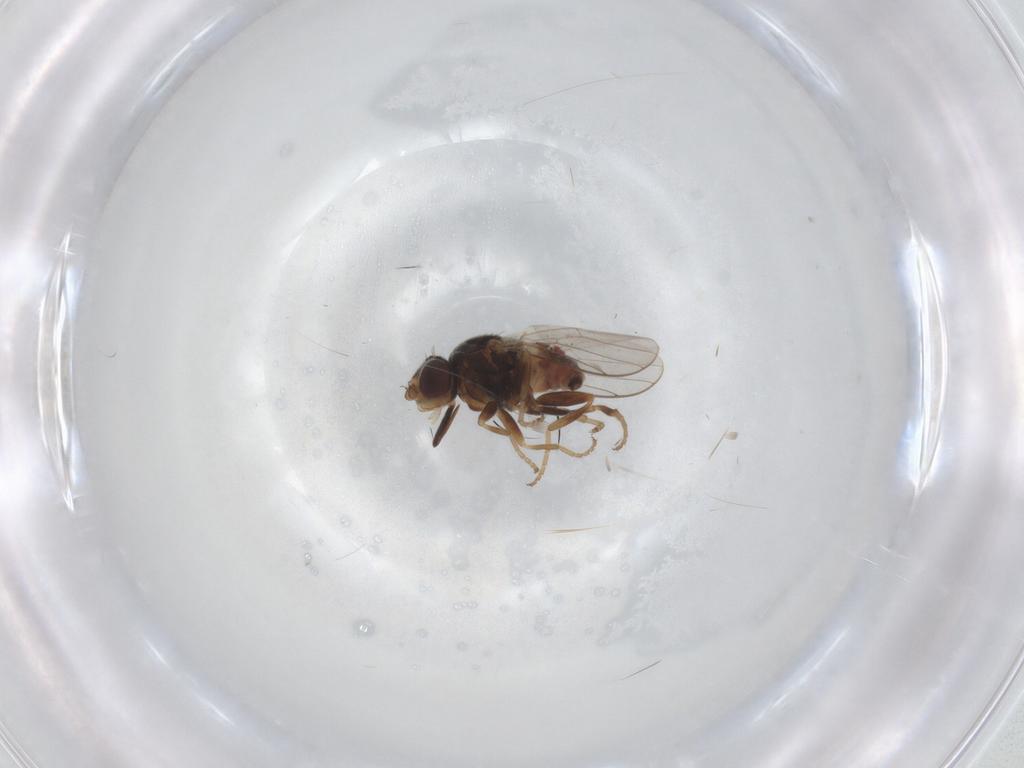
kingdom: Animalia
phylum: Arthropoda
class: Insecta
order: Diptera
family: Chloropidae
